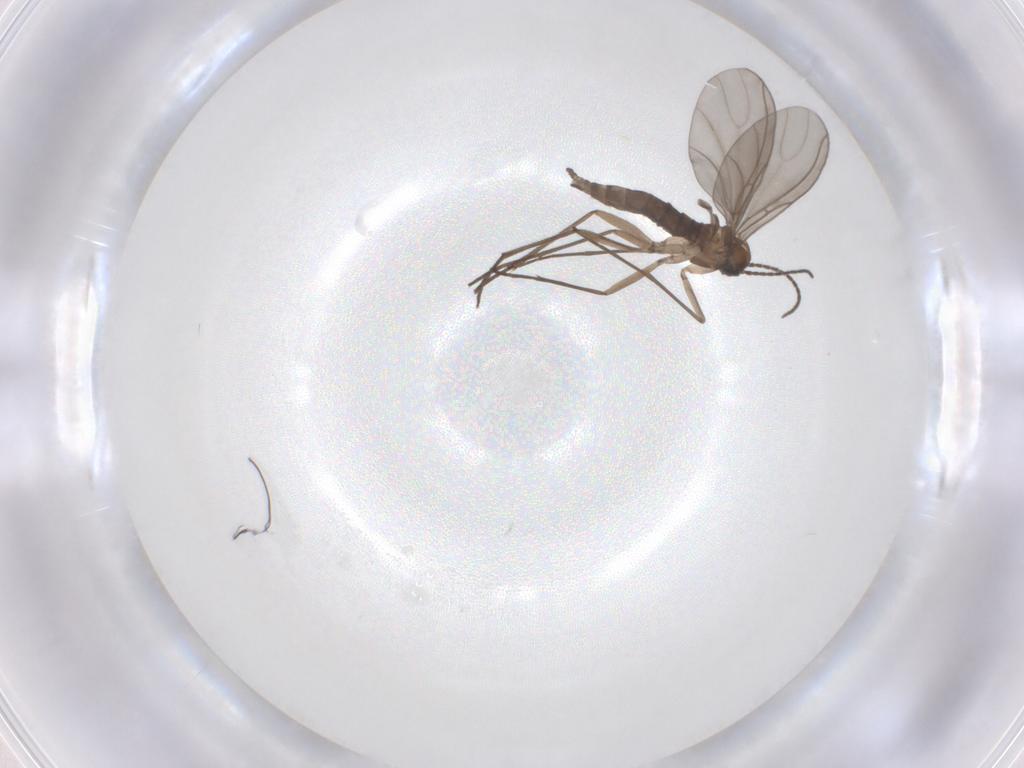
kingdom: Animalia
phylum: Arthropoda
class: Insecta
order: Diptera
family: Sciaridae
